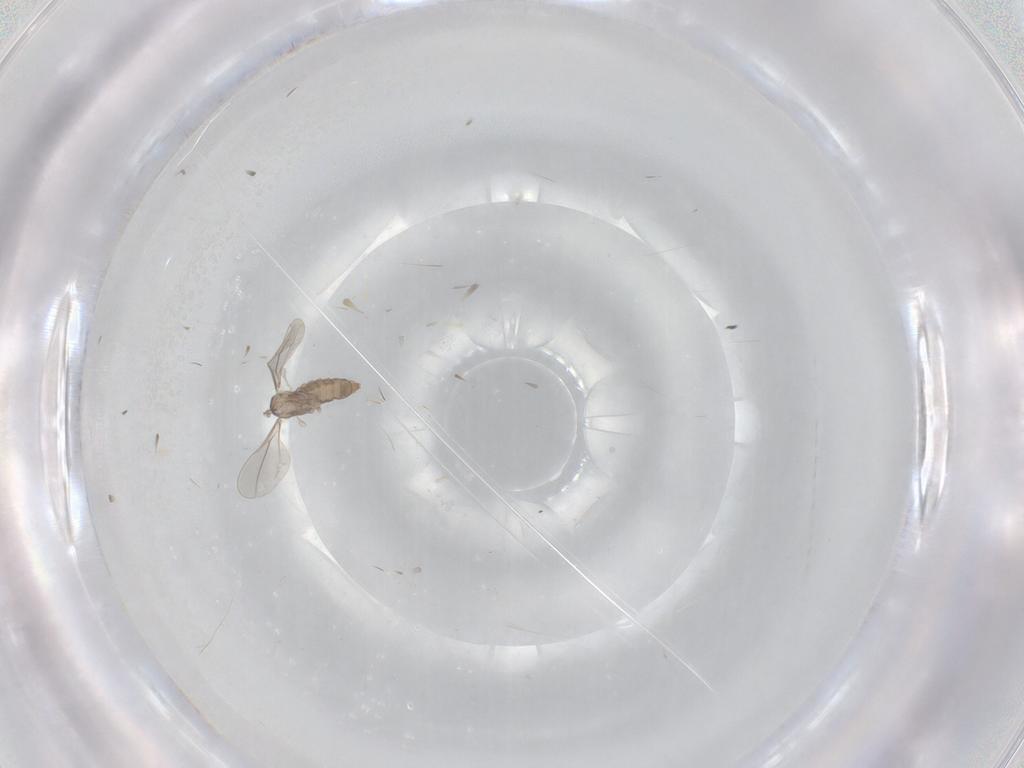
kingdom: Animalia
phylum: Arthropoda
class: Insecta
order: Diptera
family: Cecidomyiidae
